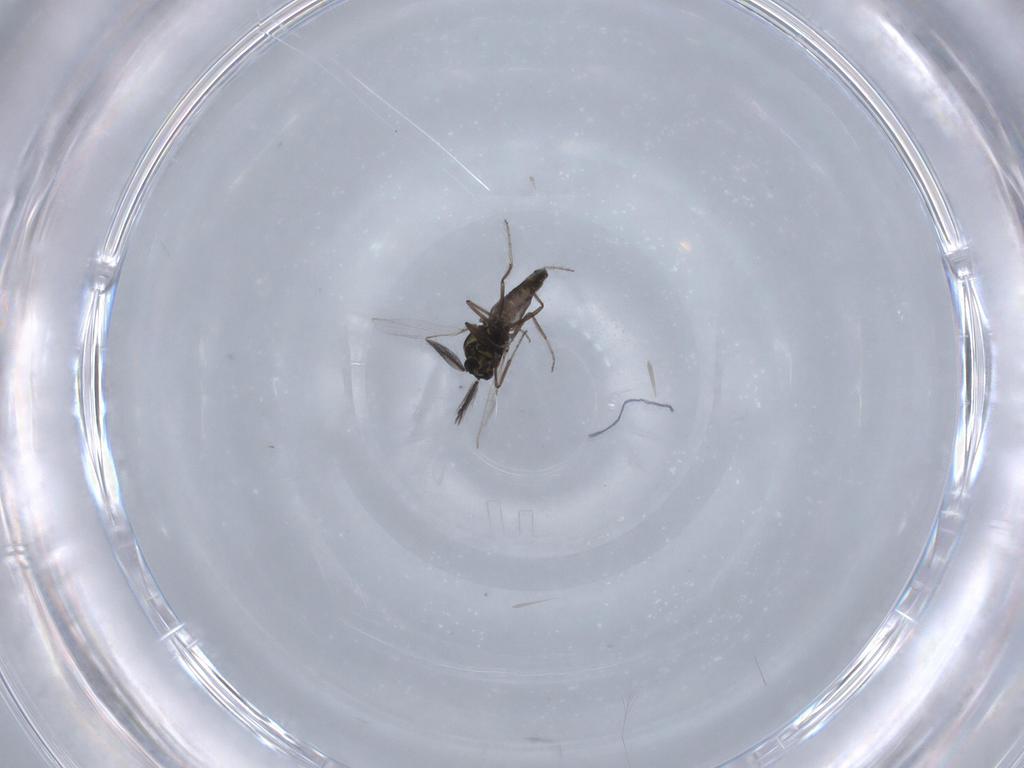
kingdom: Animalia
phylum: Arthropoda
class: Insecta
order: Diptera
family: Ceratopogonidae
